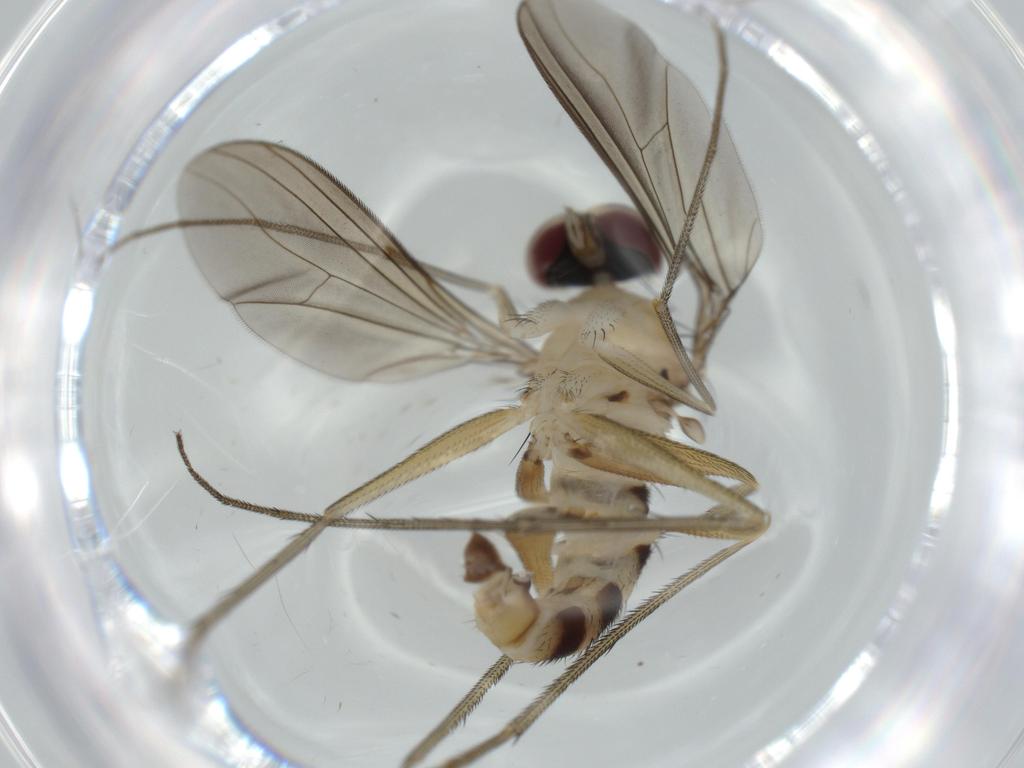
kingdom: Animalia
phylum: Arthropoda
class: Insecta
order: Diptera
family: Dolichopodidae
